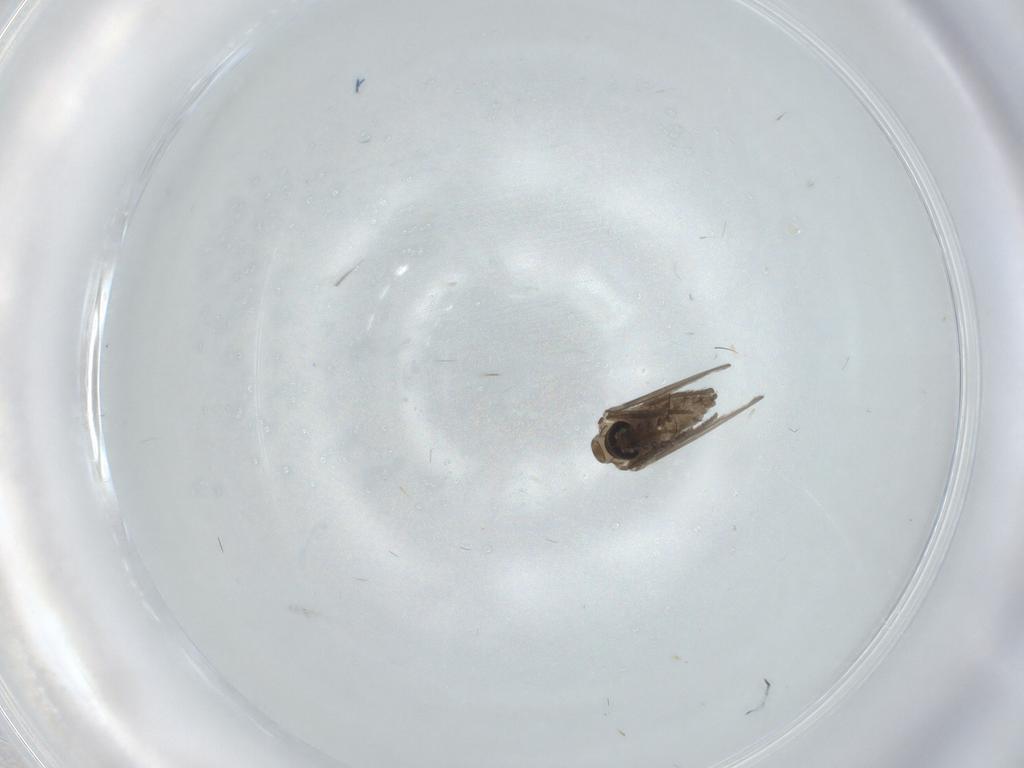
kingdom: Animalia
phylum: Arthropoda
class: Insecta
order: Diptera
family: Psychodidae
